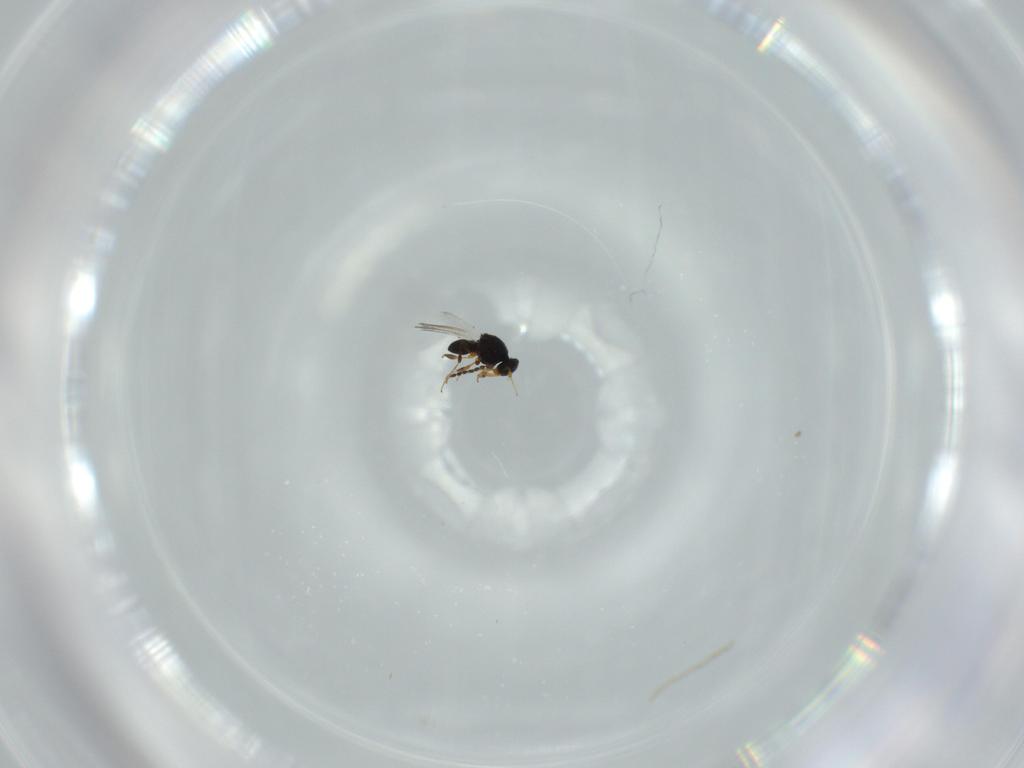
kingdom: Animalia
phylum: Arthropoda
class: Insecta
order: Hymenoptera
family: Platygastridae
